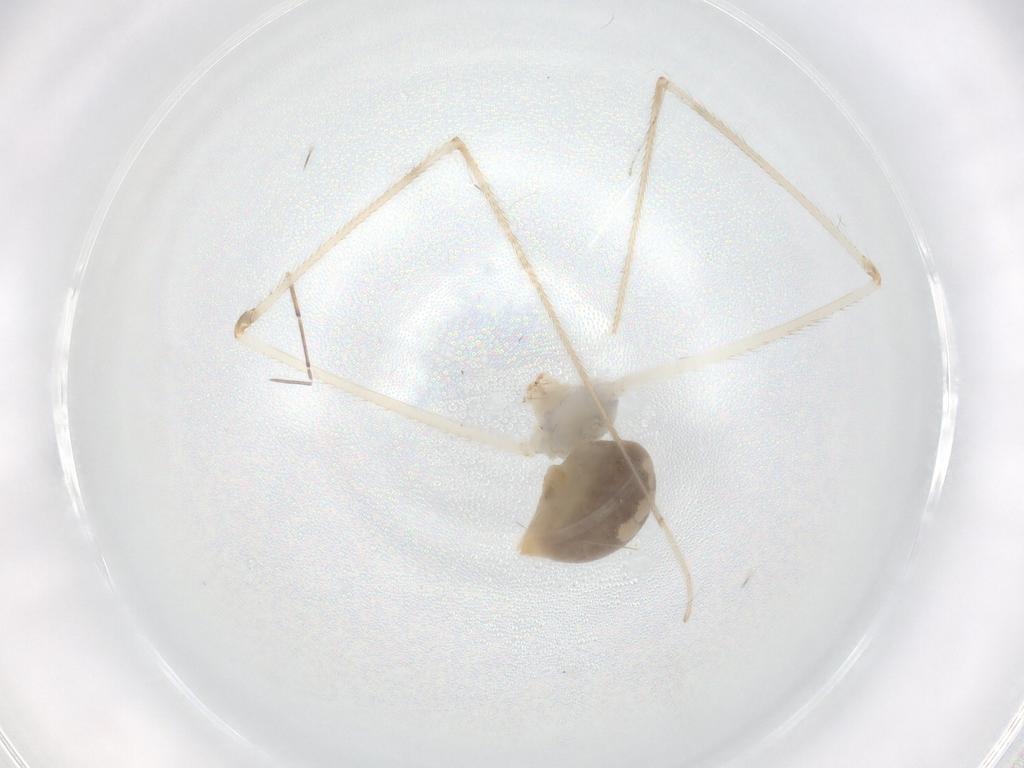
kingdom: Animalia
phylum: Arthropoda
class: Arachnida
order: Araneae
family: Pholcidae
